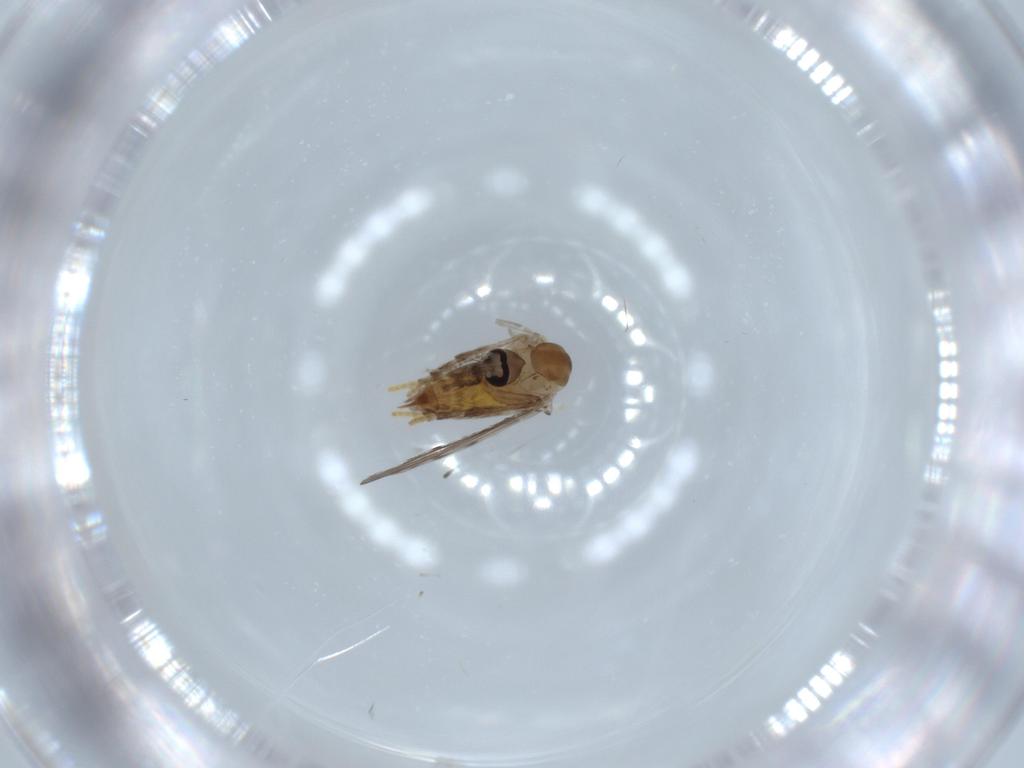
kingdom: Animalia
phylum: Arthropoda
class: Insecta
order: Diptera
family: Psychodidae
